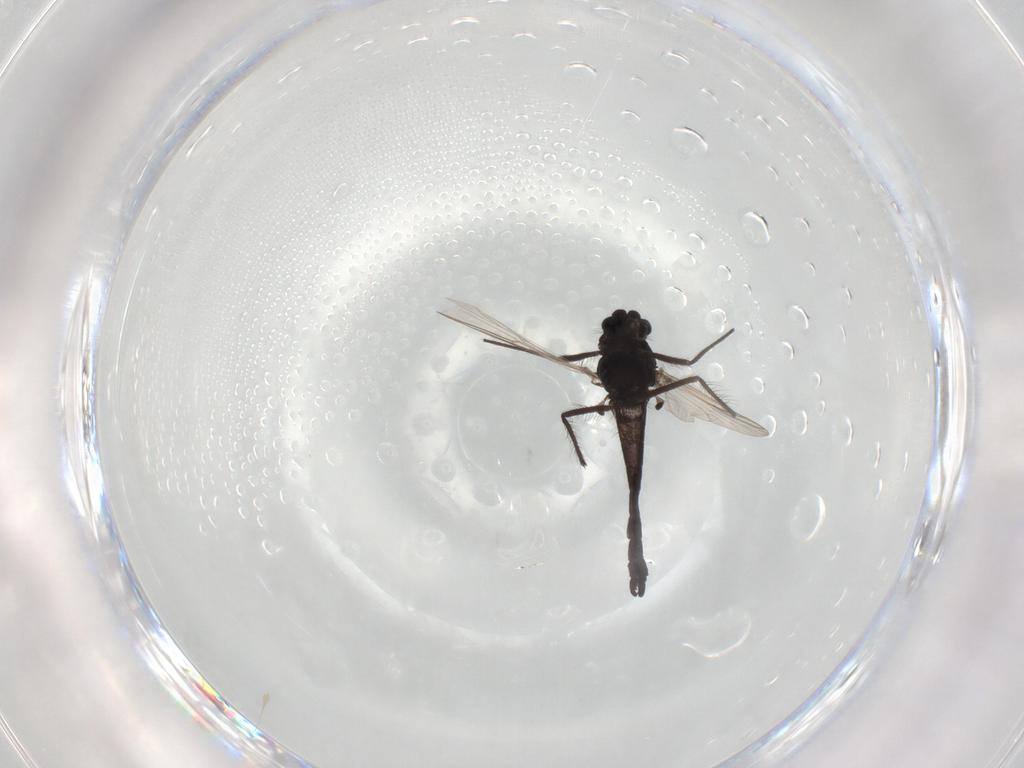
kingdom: Animalia
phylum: Arthropoda
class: Insecta
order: Diptera
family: Chironomidae
